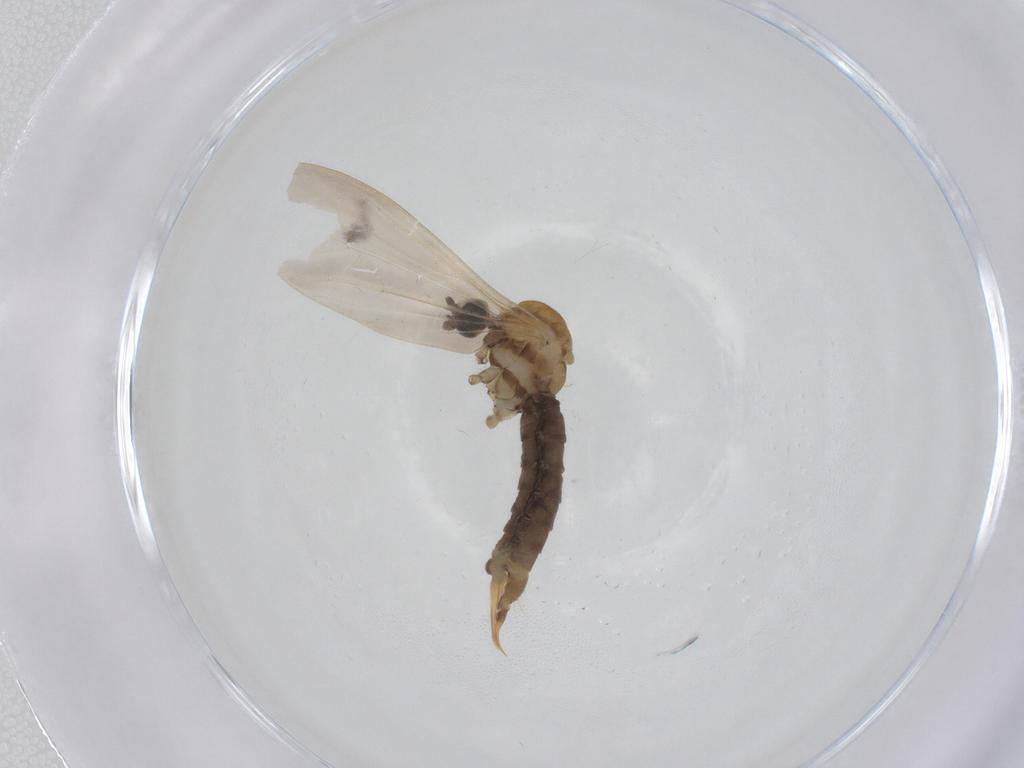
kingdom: Animalia
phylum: Arthropoda
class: Insecta
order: Diptera
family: Limoniidae
